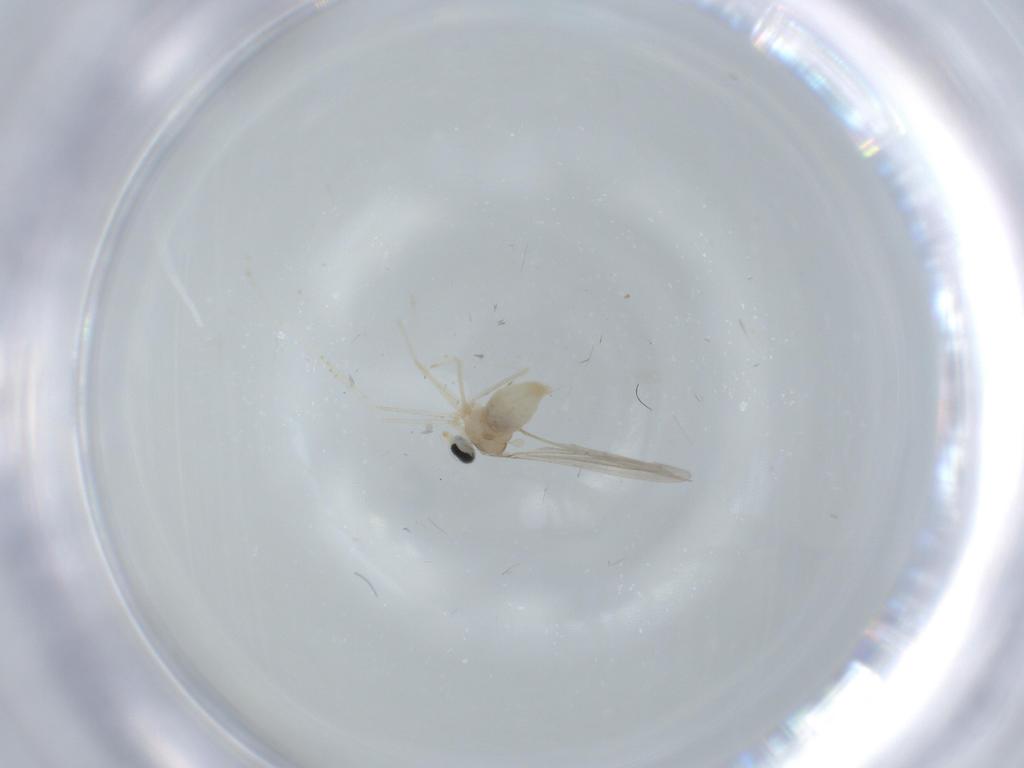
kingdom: Animalia
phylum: Arthropoda
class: Insecta
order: Diptera
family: Cecidomyiidae
